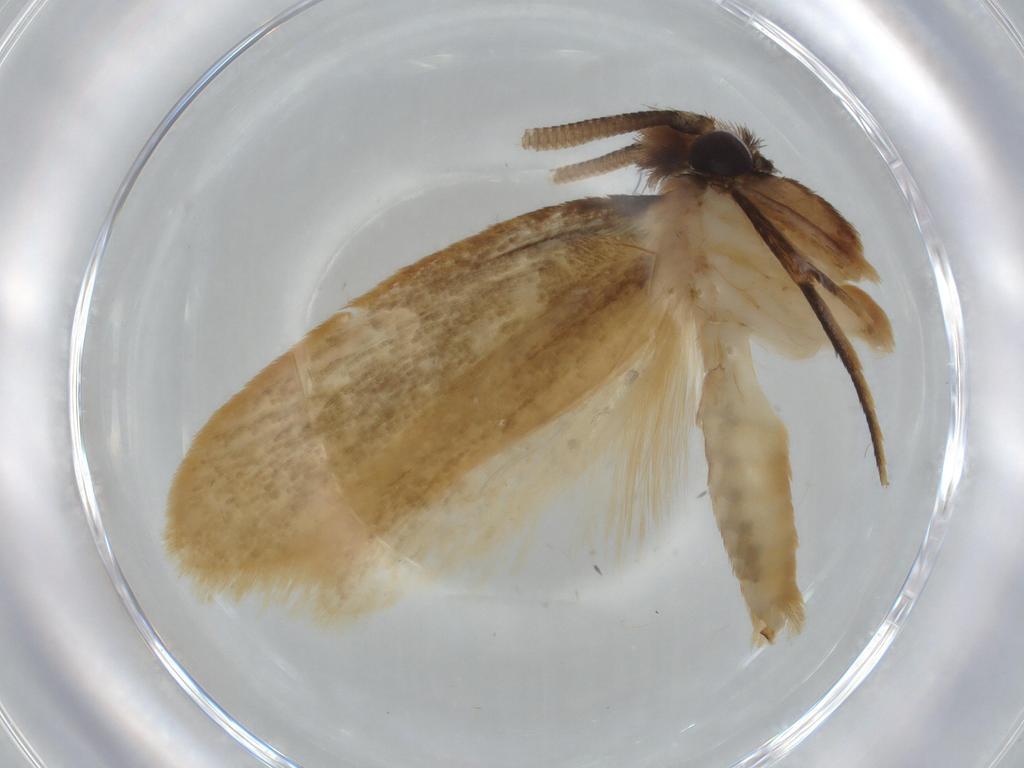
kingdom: Animalia
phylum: Arthropoda
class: Insecta
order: Lepidoptera
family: Tineidae
